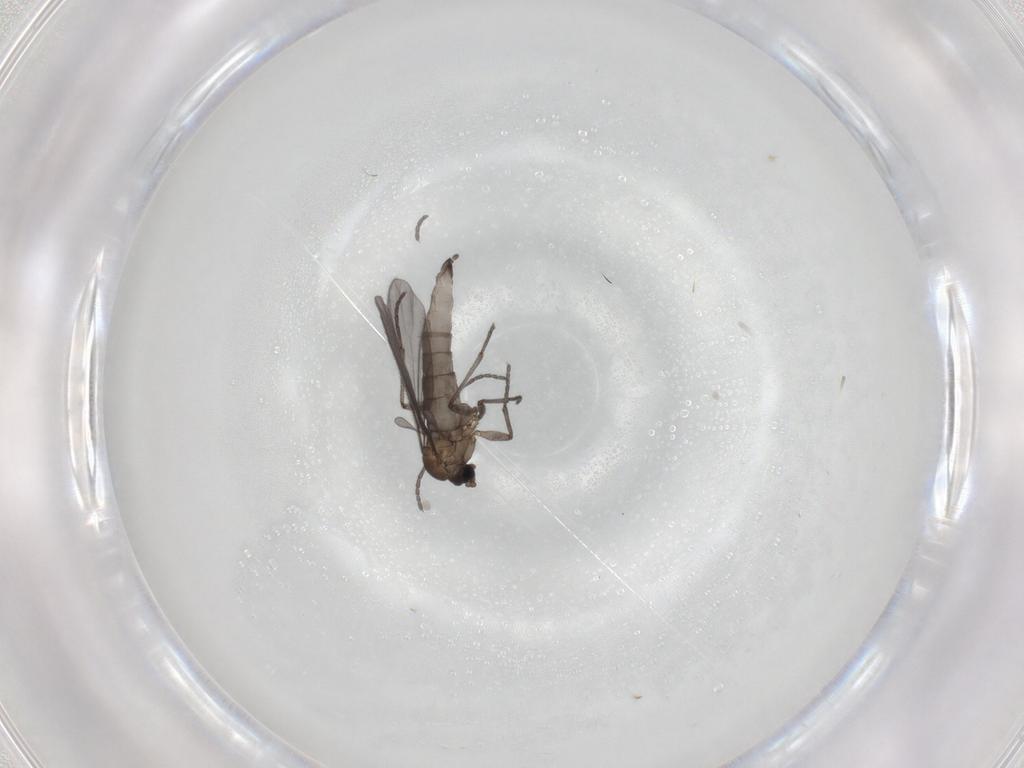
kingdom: Animalia
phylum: Arthropoda
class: Insecta
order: Diptera
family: Sciaridae
